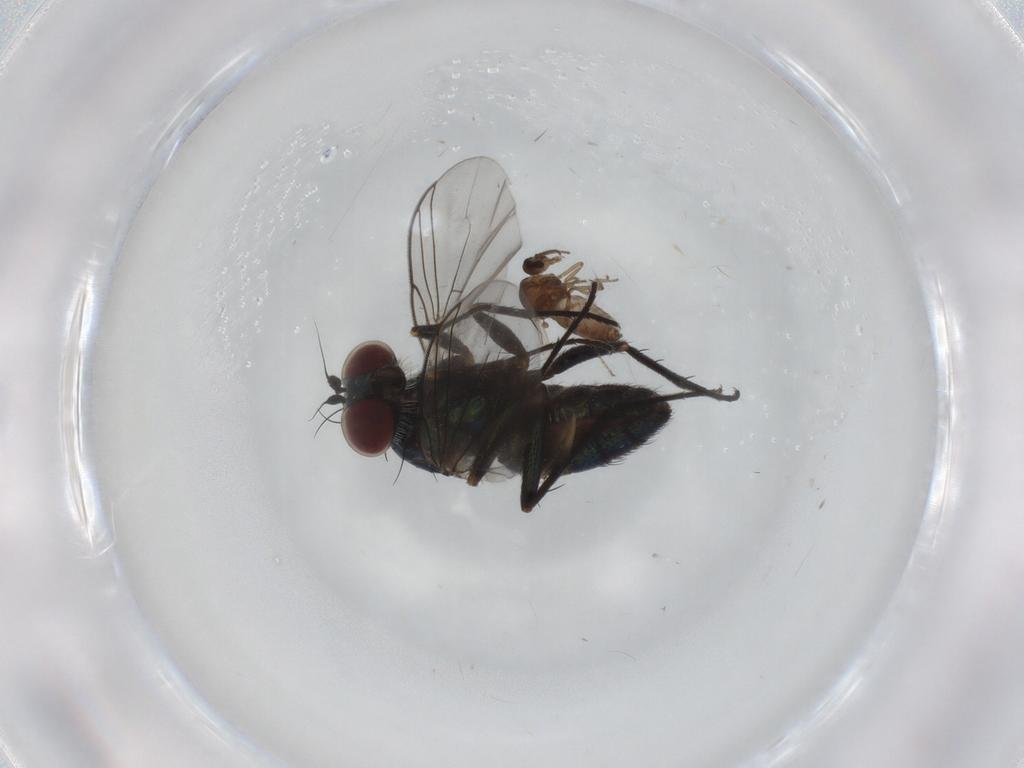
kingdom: Animalia
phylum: Arthropoda
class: Insecta
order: Diptera
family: Dolichopodidae
